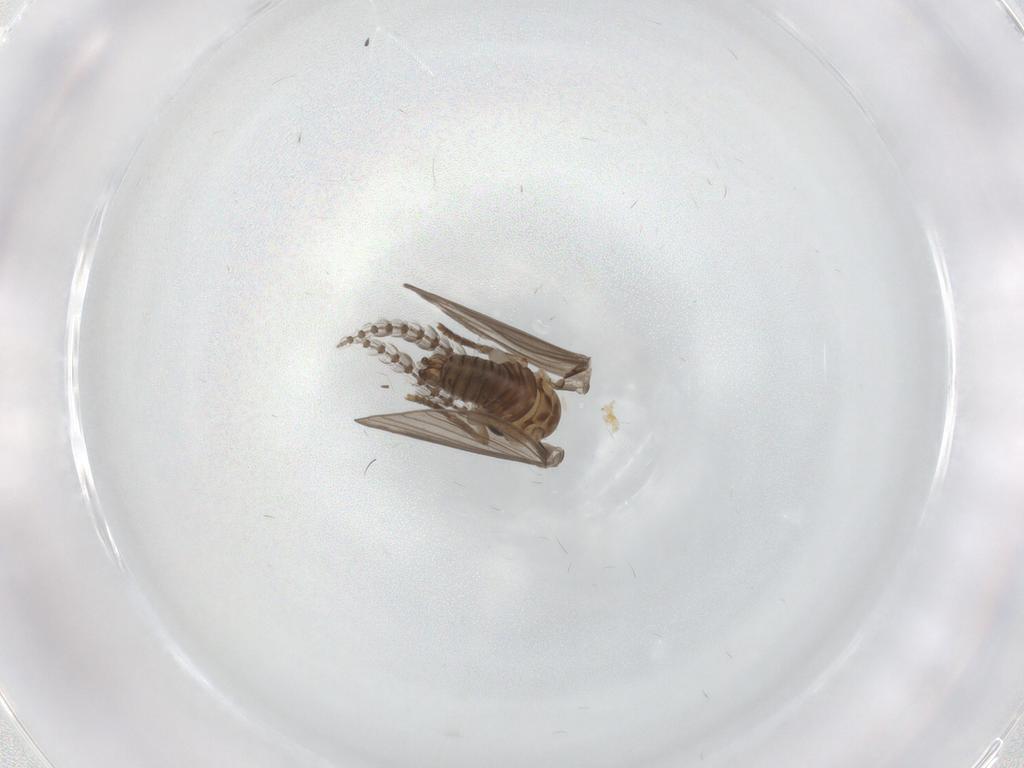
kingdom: Animalia
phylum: Arthropoda
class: Insecta
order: Diptera
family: Psychodidae
